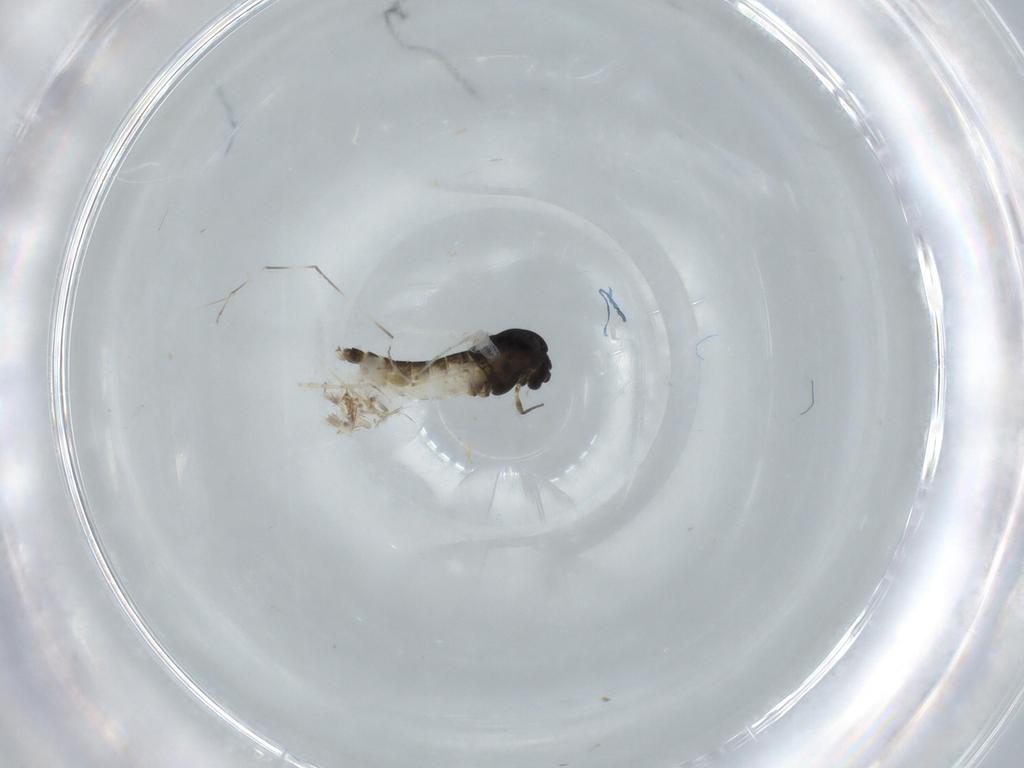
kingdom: Animalia
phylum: Arthropoda
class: Insecta
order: Diptera
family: Chironomidae
